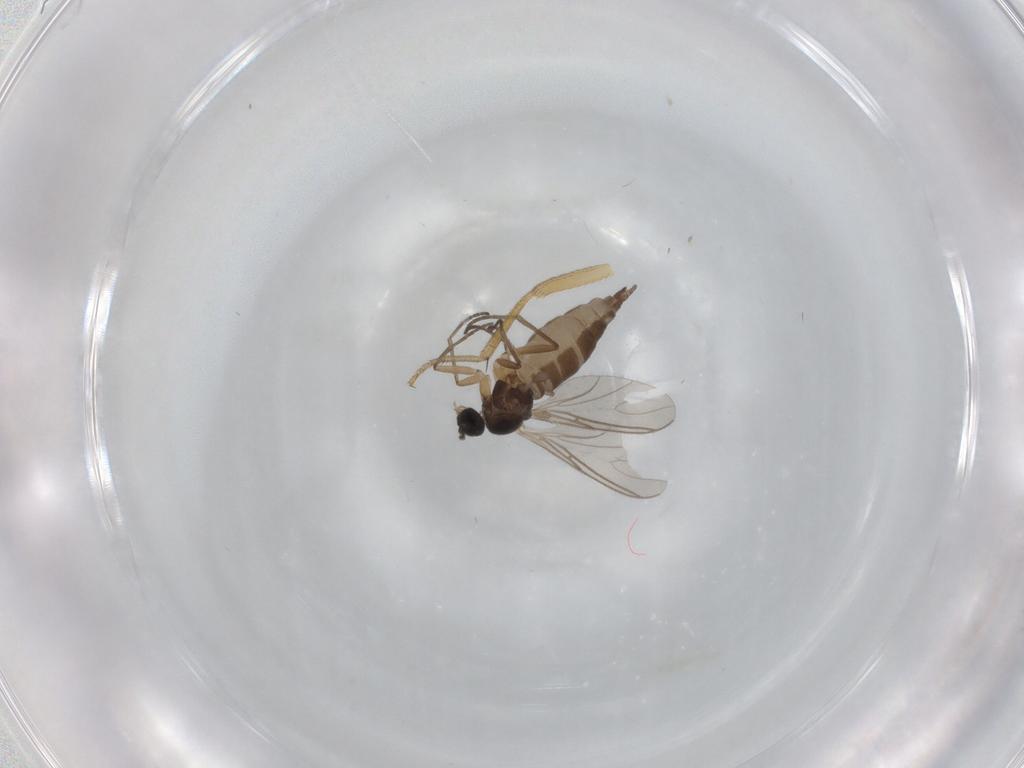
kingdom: Animalia
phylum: Arthropoda
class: Insecta
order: Diptera
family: Drosophilidae
